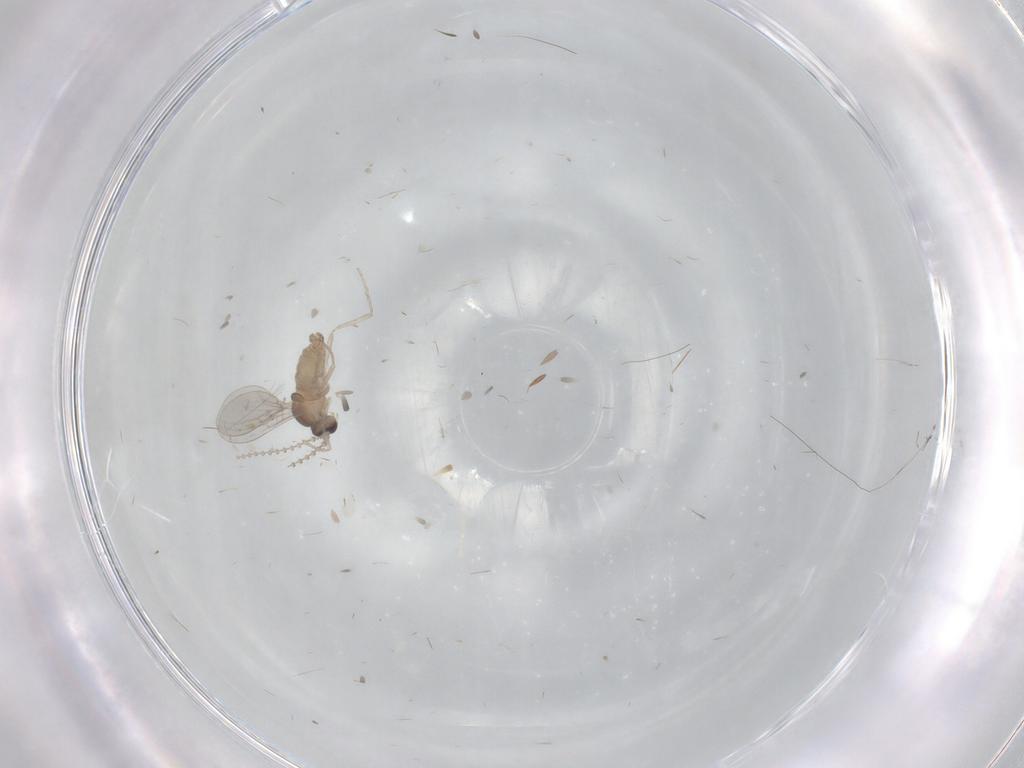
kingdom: Animalia
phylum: Arthropoda
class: Insecta
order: Diptera
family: Cecidomyiidae
